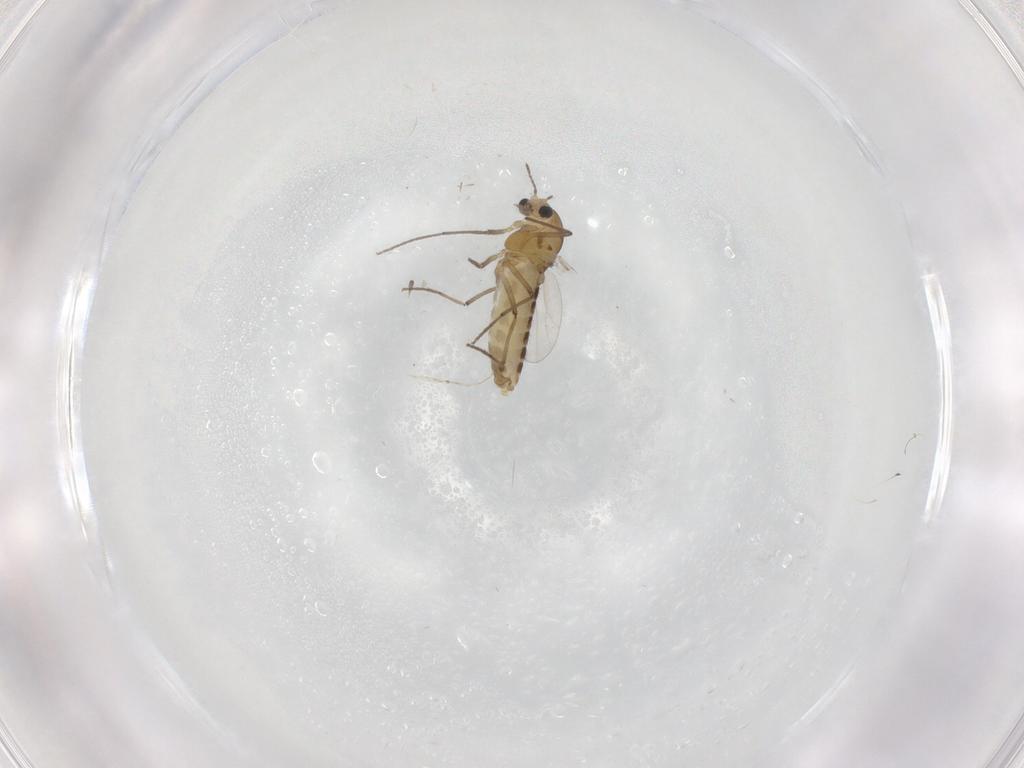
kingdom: Animalia
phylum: Arthropoda
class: Insecta
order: Diptera
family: Chironomidae
